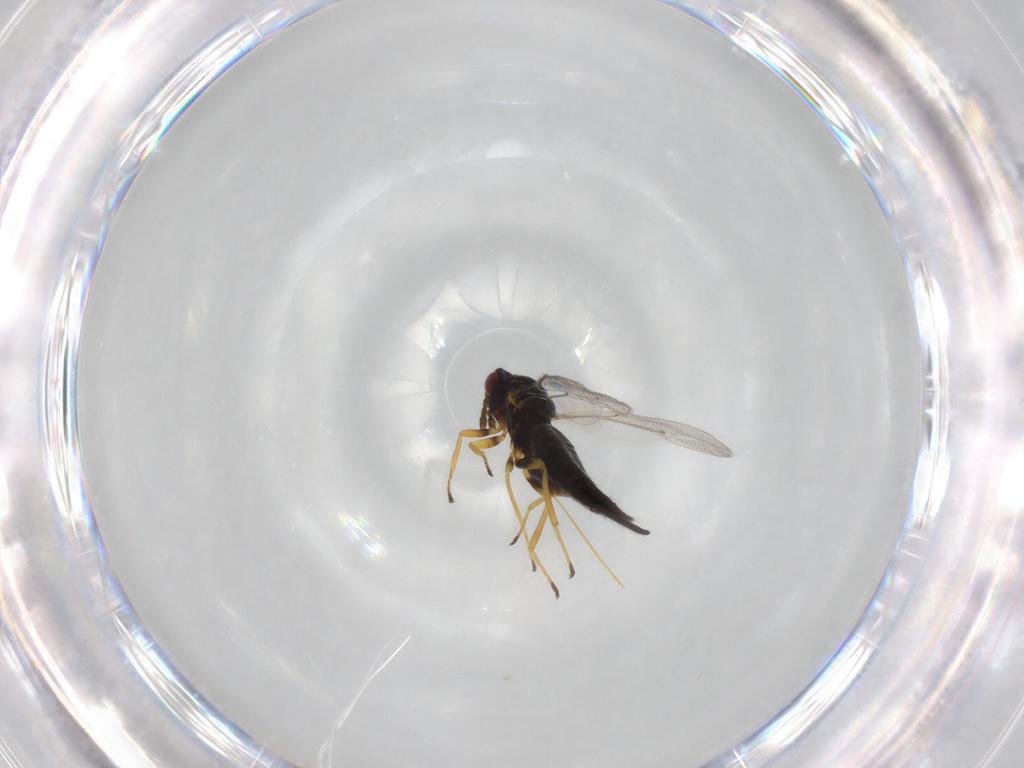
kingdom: Animalia
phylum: Arthropoda
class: Insecta
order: Hymenoptera
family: Eulophidae
